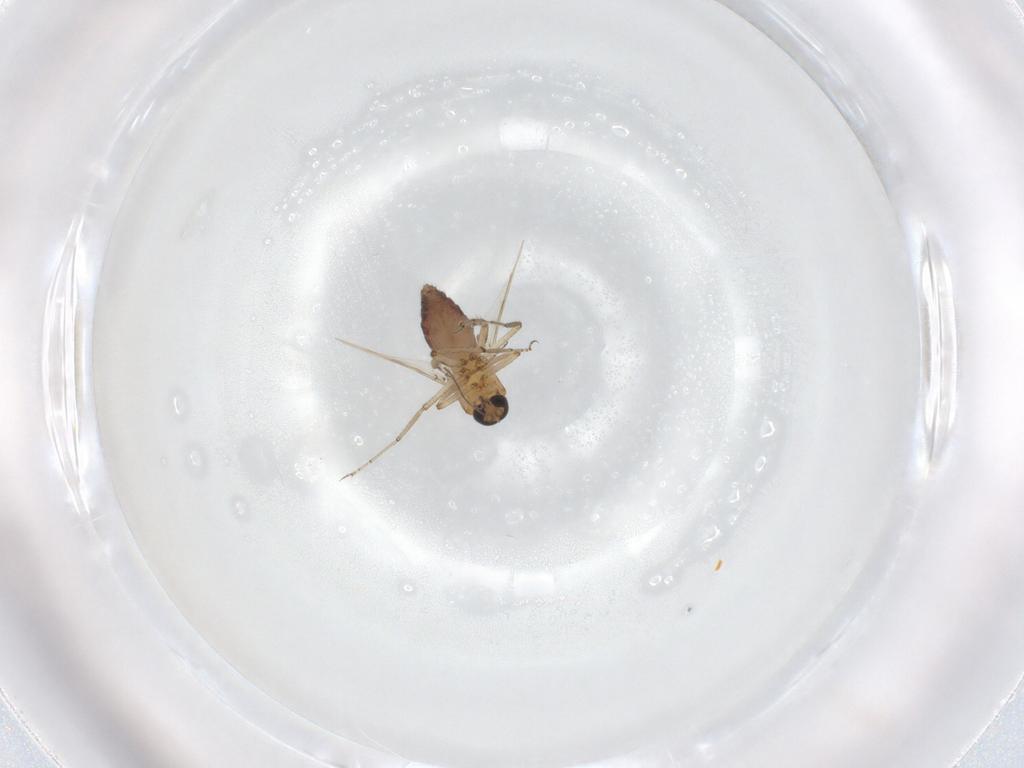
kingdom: Animalia
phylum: Arthropoda
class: Insecta
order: Diptera
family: Ceratopogonidae
